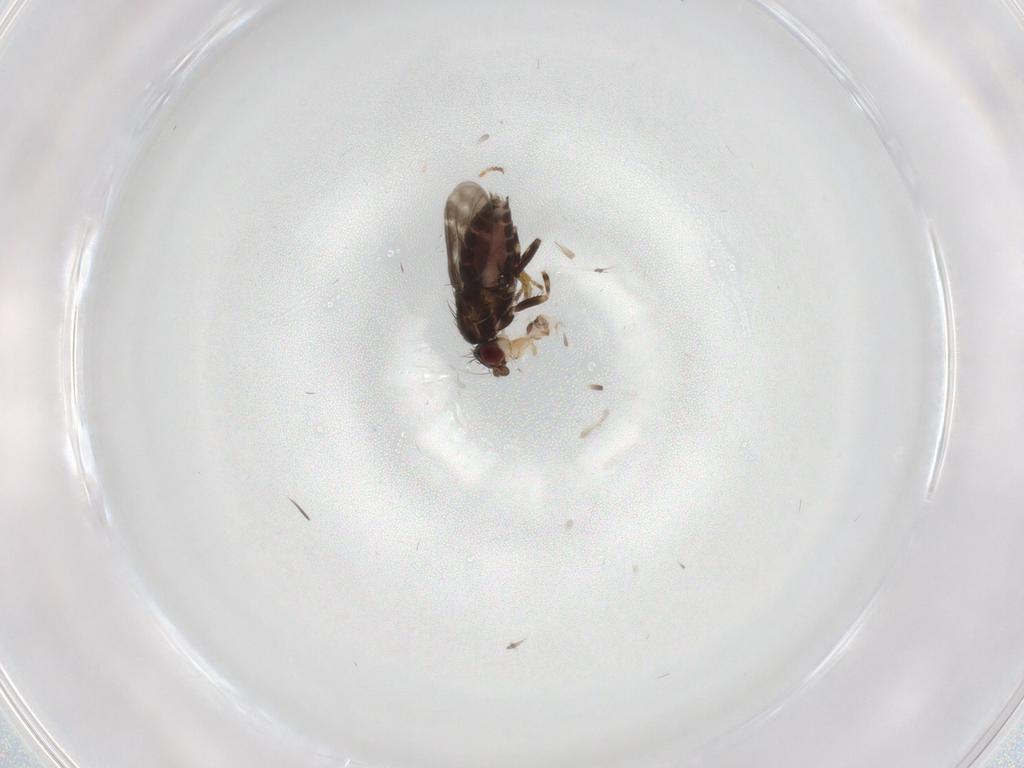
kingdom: Animalia
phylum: Arthropoda
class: Insecta
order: Diptera
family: Sphaeroceridae
